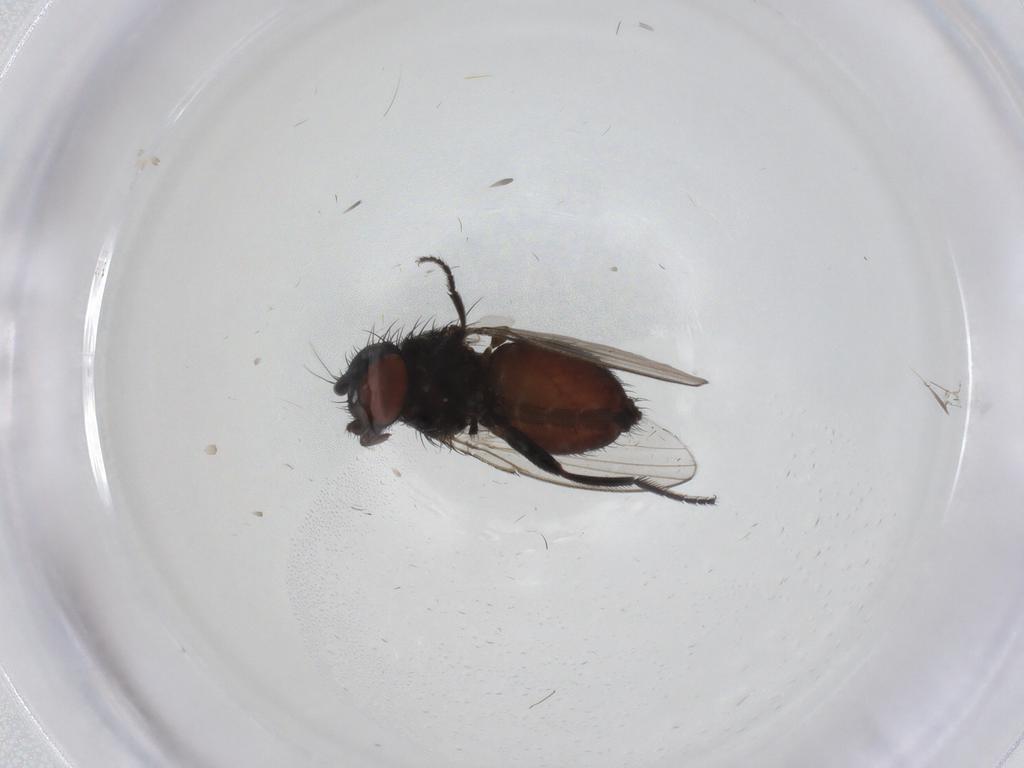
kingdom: Animalia
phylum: Arthropoda
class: Insecta
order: Diptera
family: Milichiidae
